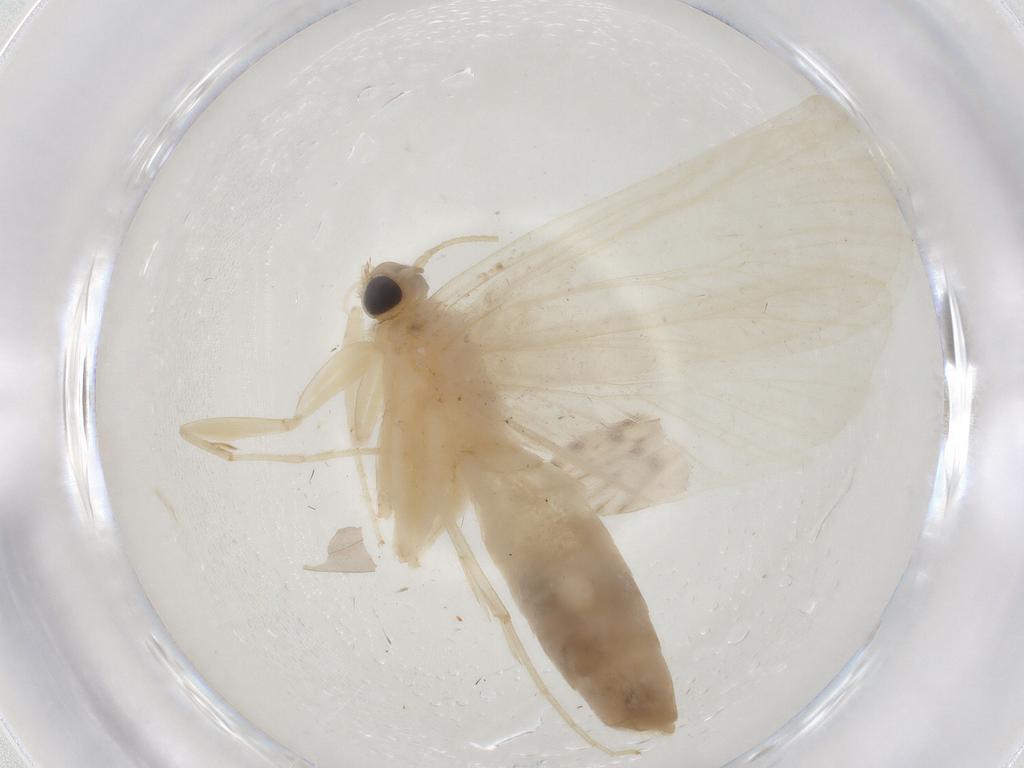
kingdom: Animalia
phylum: Arthropoda
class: Insecta
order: Lepidoptera
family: Crambidae
